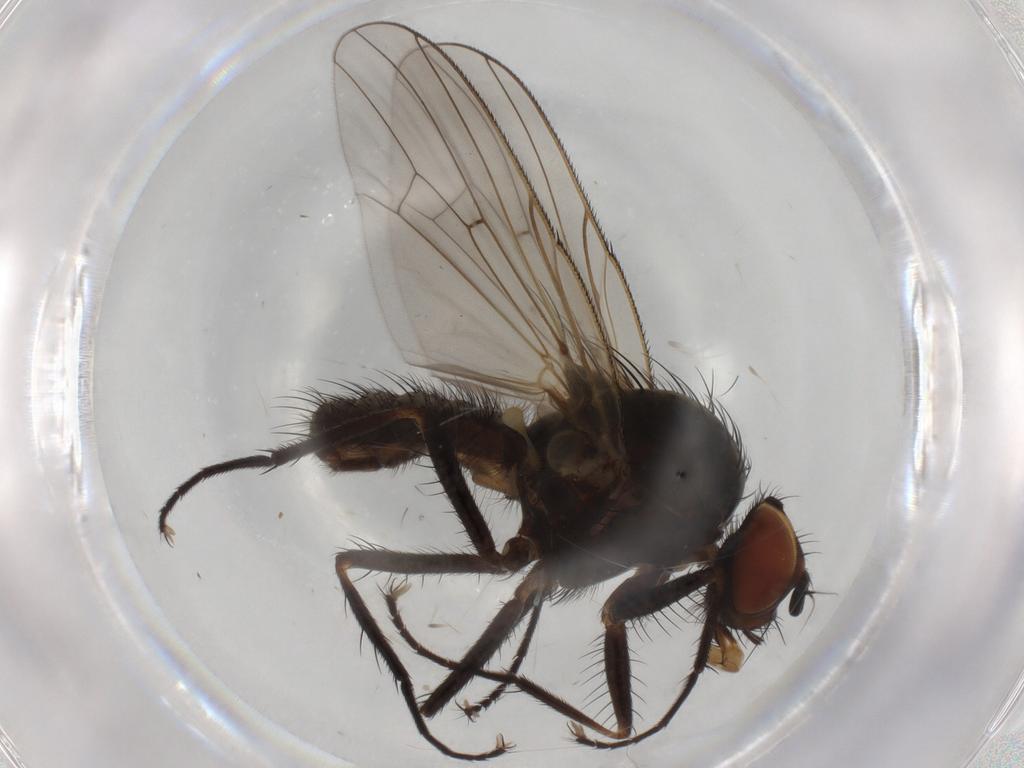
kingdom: Animalia
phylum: Arthropoda
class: Insecta
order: Diptera
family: Anthomyiidae
